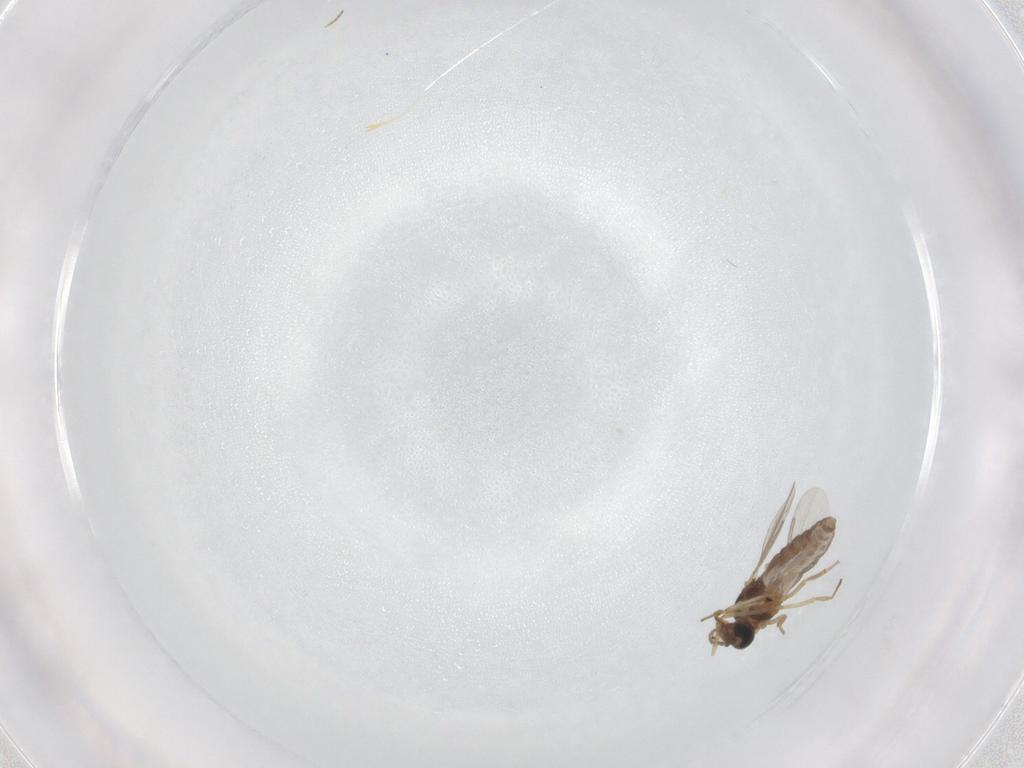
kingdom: Animalia
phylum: Arthropoda
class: Insecta
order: Diptera
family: Ceratopogonidae
